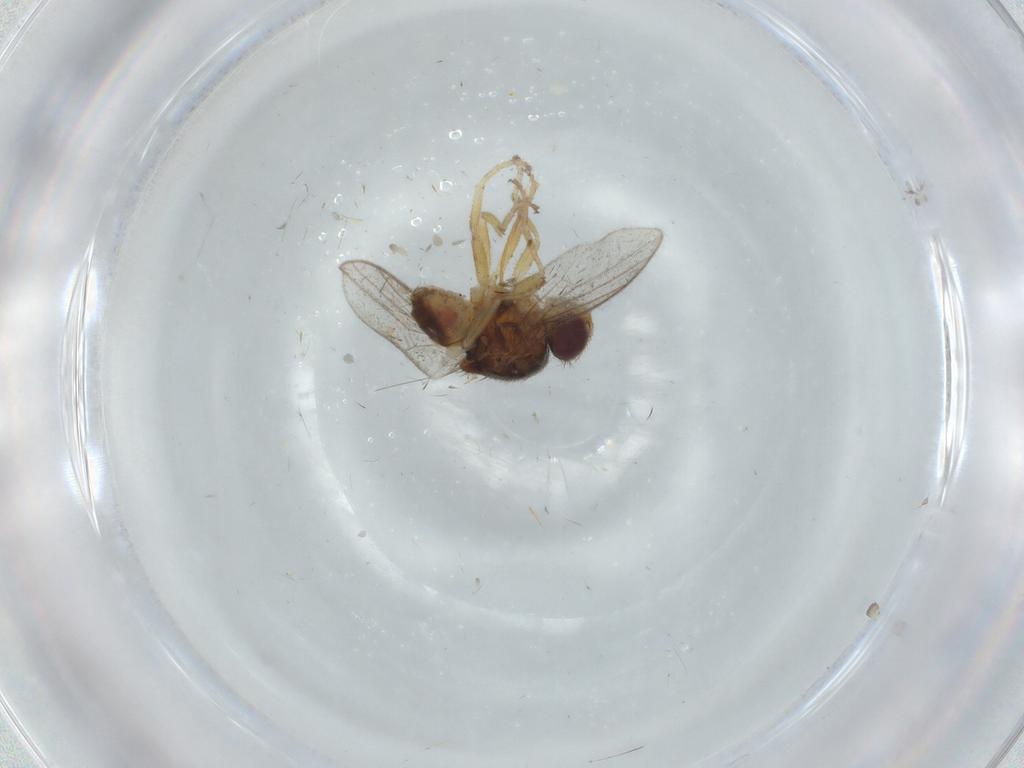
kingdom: Animalia
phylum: Arthropoda
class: Insecta
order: Diptera
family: Chloropidae
